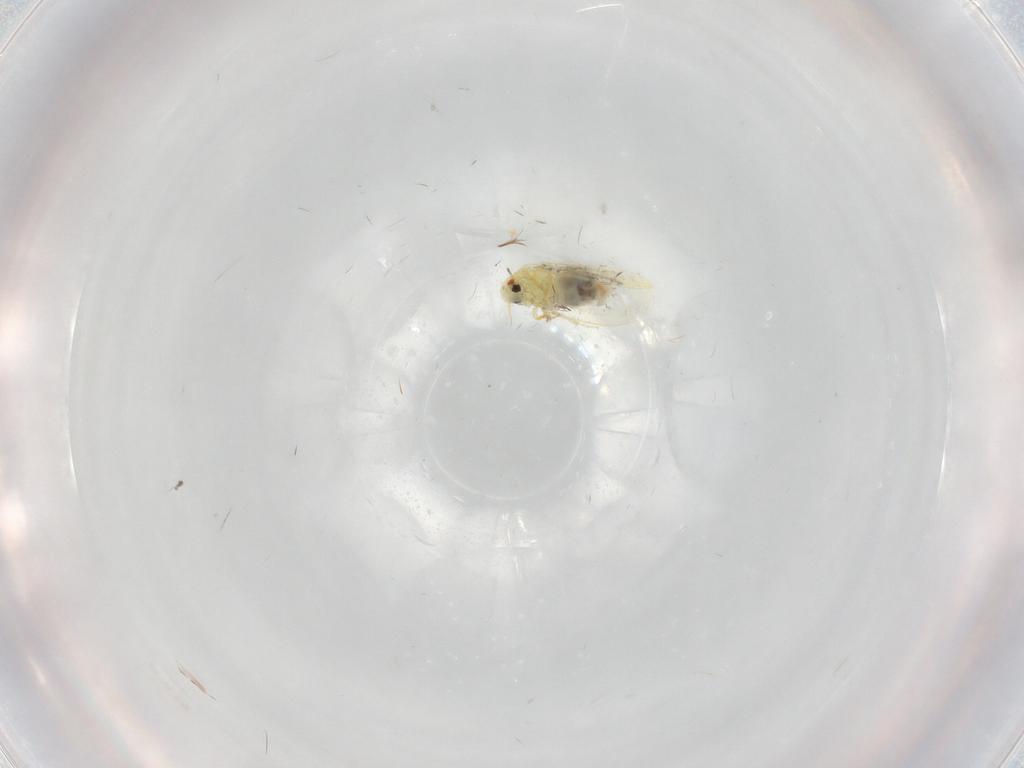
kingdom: Animalia
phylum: Arthropoda
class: Insecta
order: Hemiptera
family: Aleyrodidae
